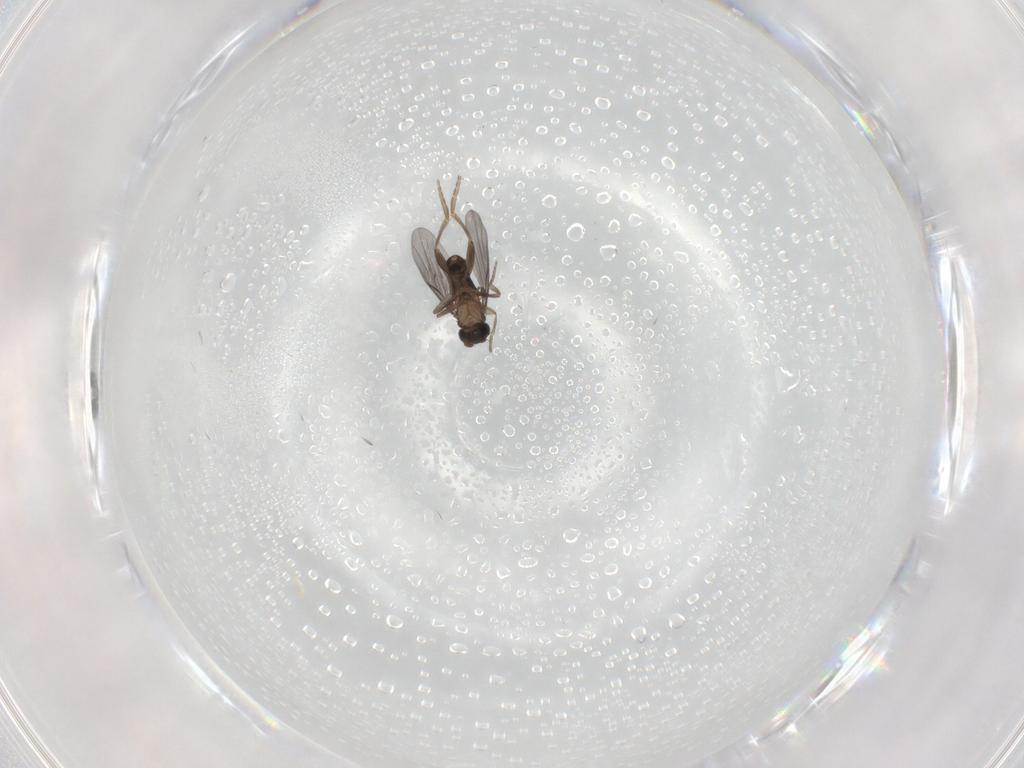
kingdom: Animalia
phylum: Arthropoda
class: Insecta
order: Diptera
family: Sciaridae
